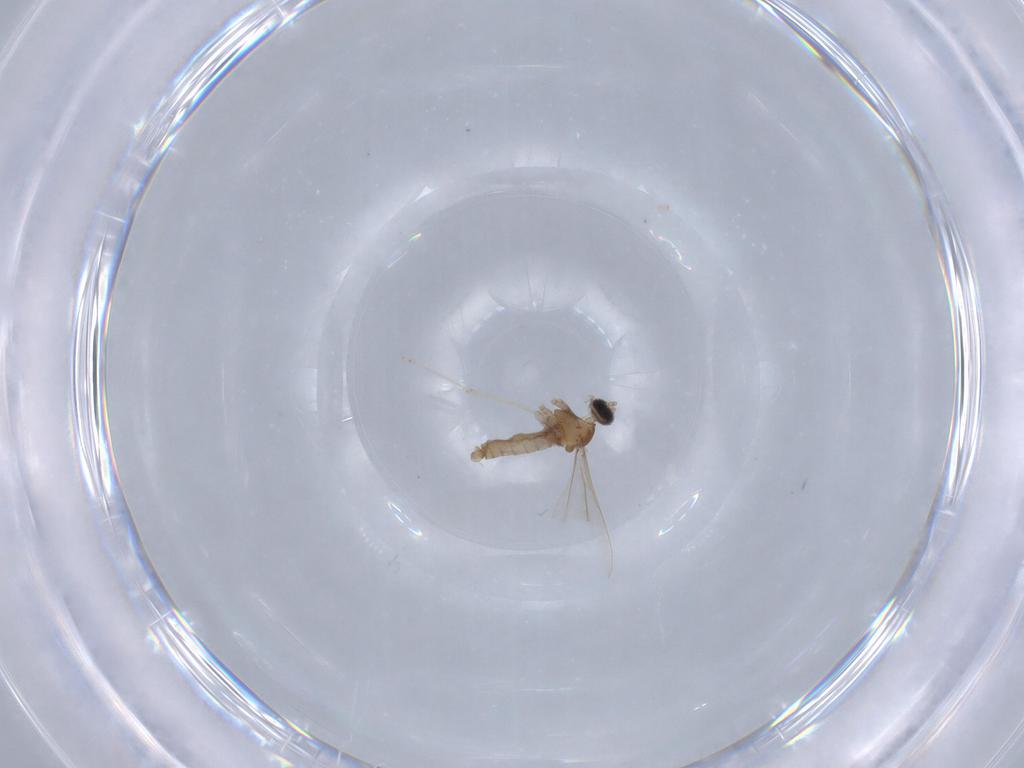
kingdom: Animalia
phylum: Arthropoda
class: Insecta
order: Diptera
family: Cecidomyiidae
